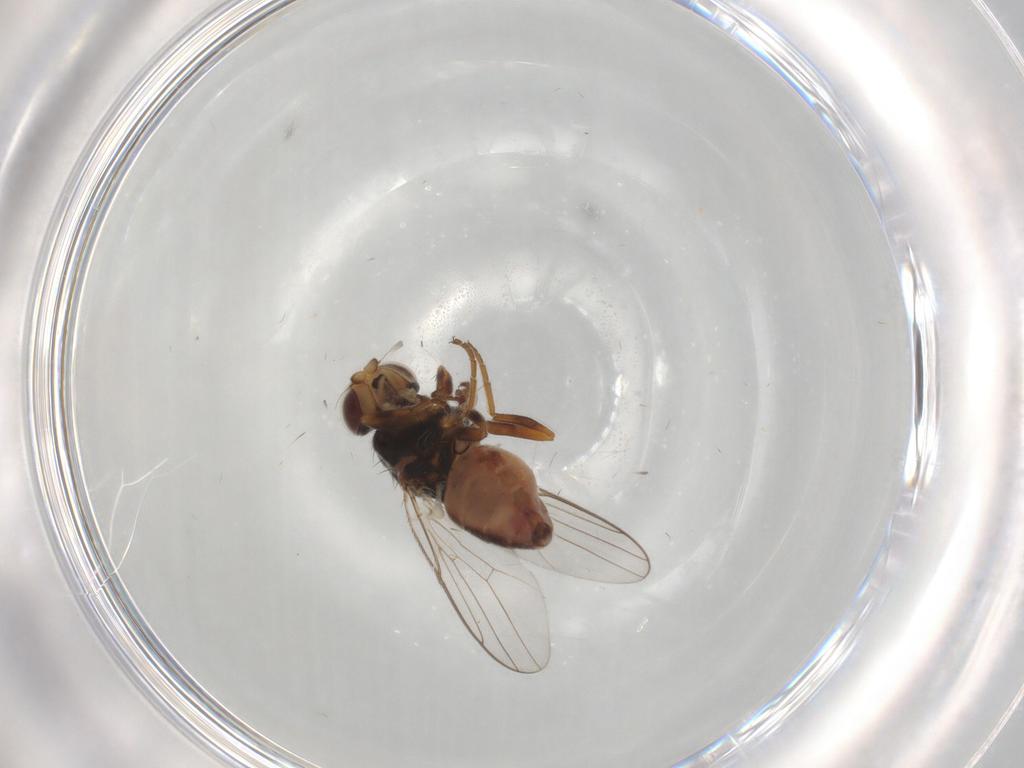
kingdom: Animalia
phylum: Arthropoda
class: Insecta
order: Diptera
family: Chloropidae
